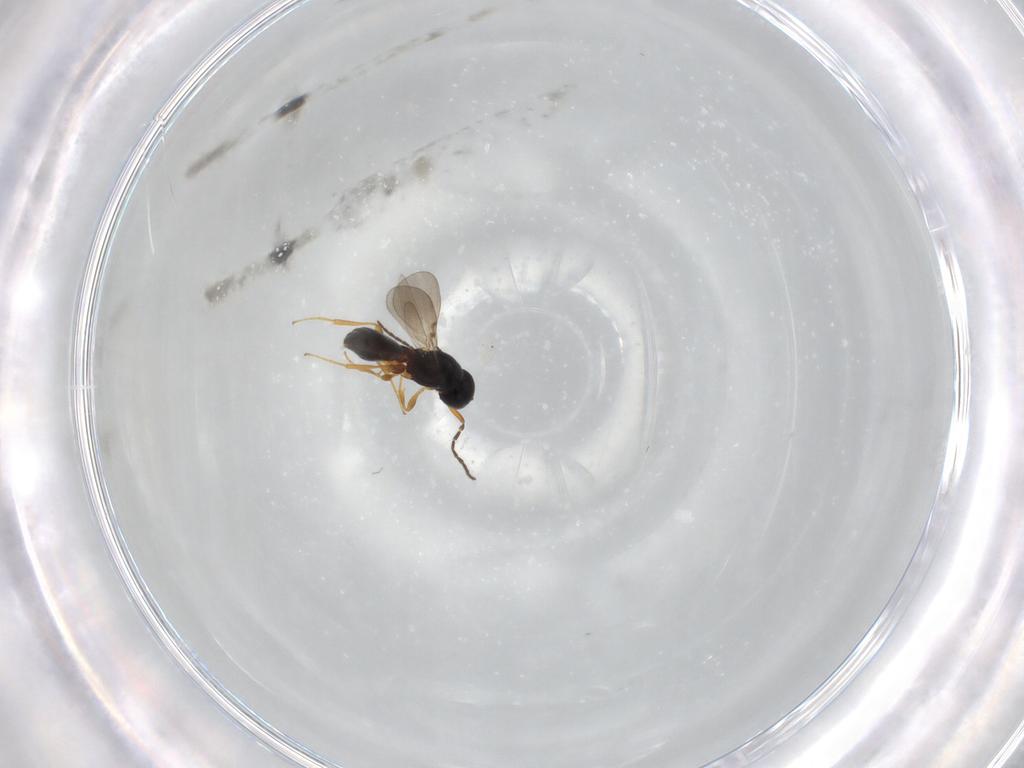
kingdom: Animalia
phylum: Arthropoda
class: Insecta
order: Hymenoptera
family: Platygastridae
